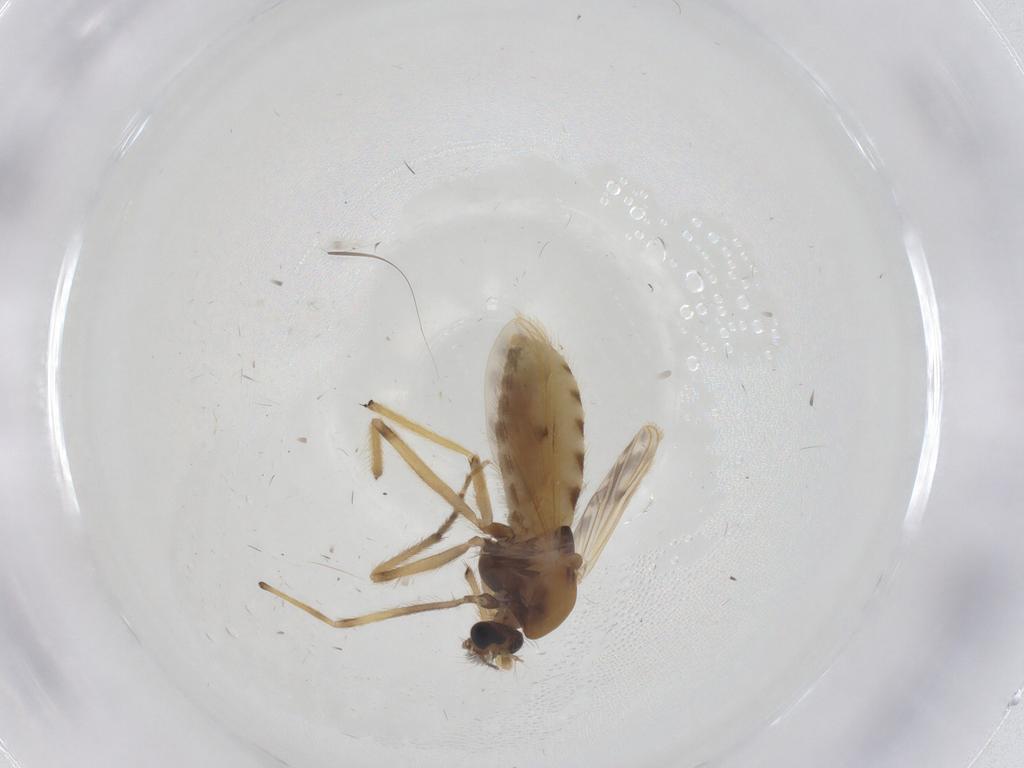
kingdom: Animalia
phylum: Arthropoda
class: Insecta
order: Diptera
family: Chironomidae
